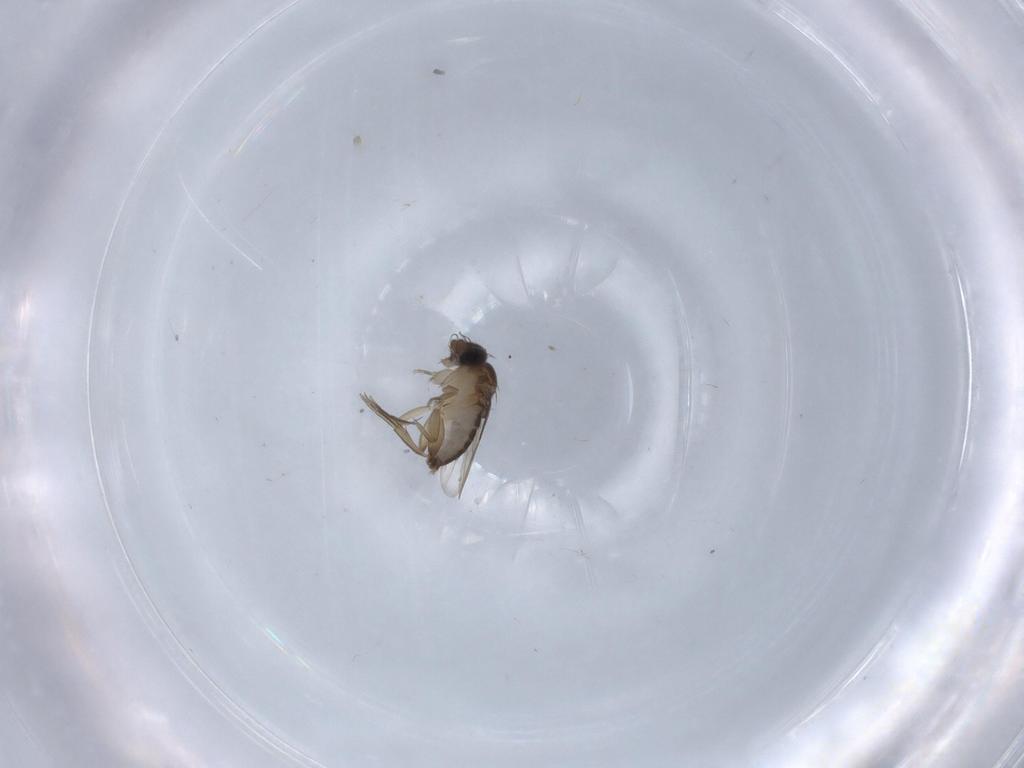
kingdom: Animalia
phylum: Arthropoda
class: Insecta
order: Diptera
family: Phoridae
